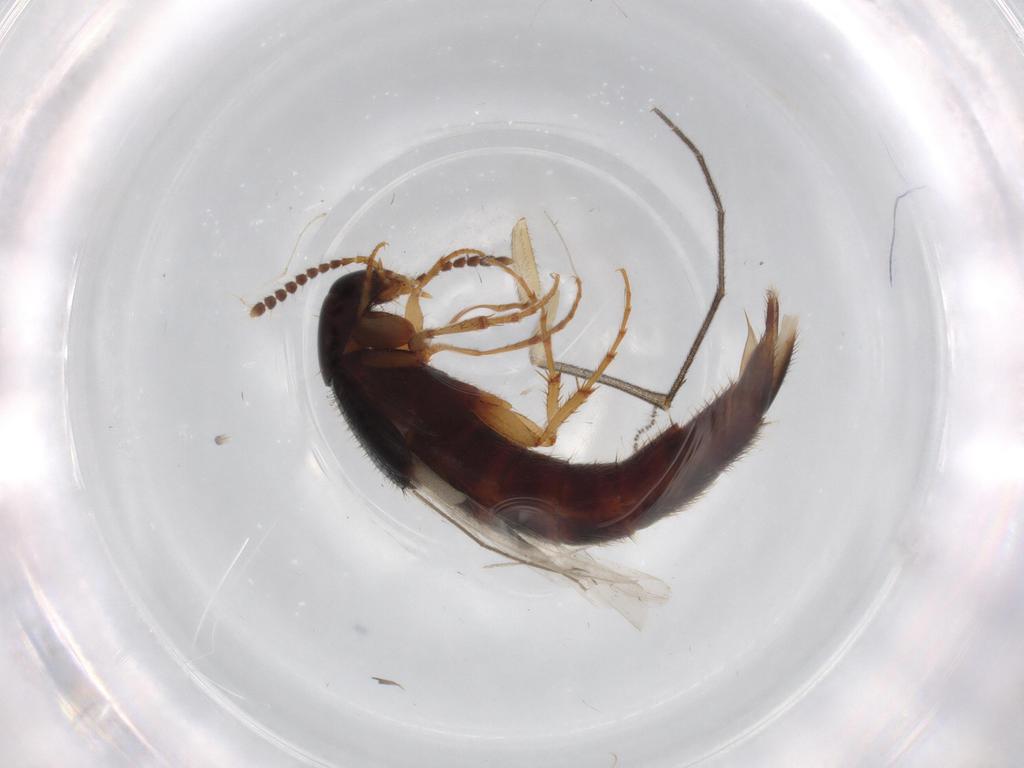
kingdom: Animalia
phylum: Arthropoda
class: Insecta
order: Coleoptera
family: Staphylinidae
